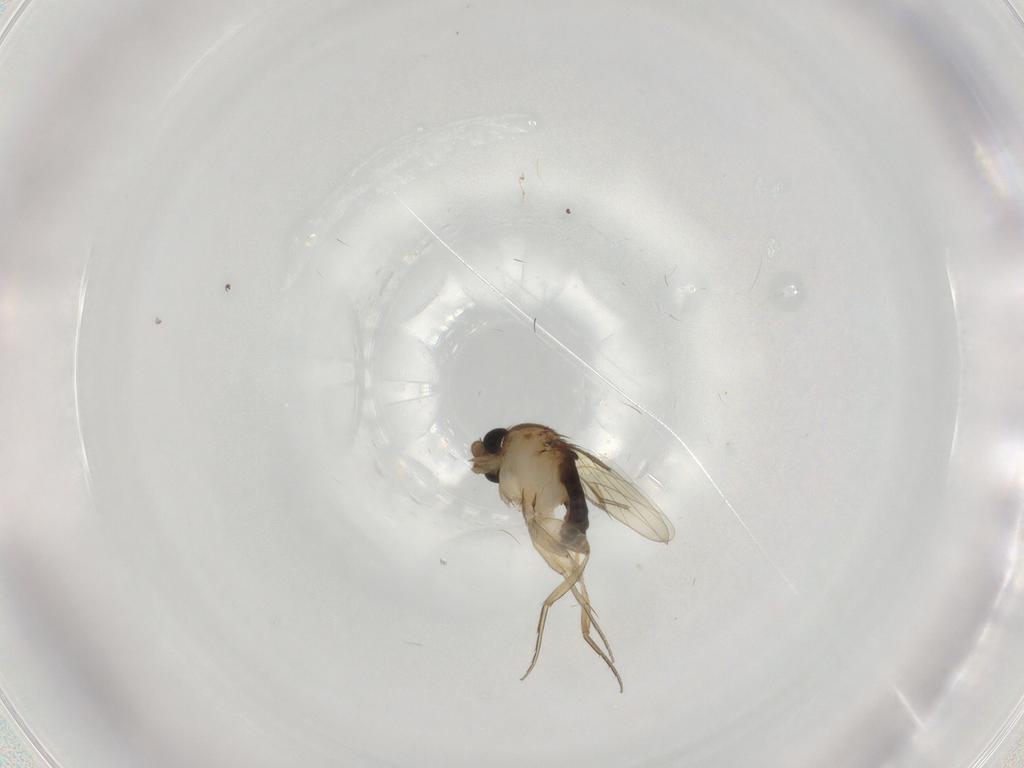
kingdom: Animalia
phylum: Arthropoda
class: Insecta
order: Diptera
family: Phoridae
